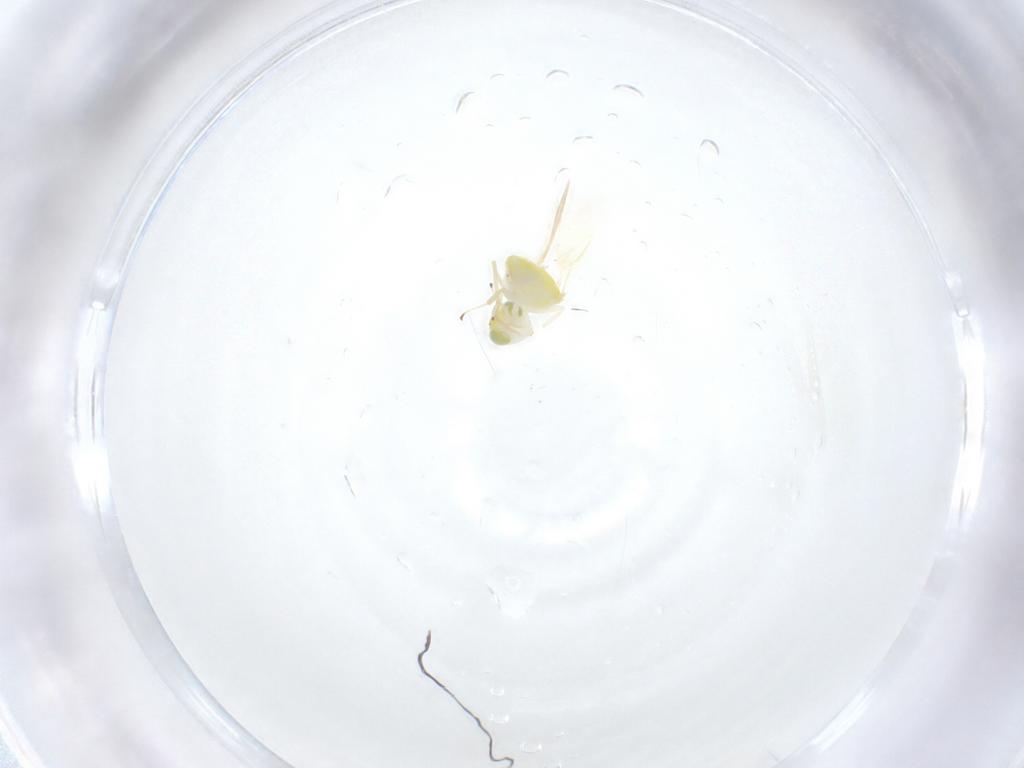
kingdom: Animalia
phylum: Arthropoda
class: Insecta
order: Hymenoptera
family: Aphelinidae
